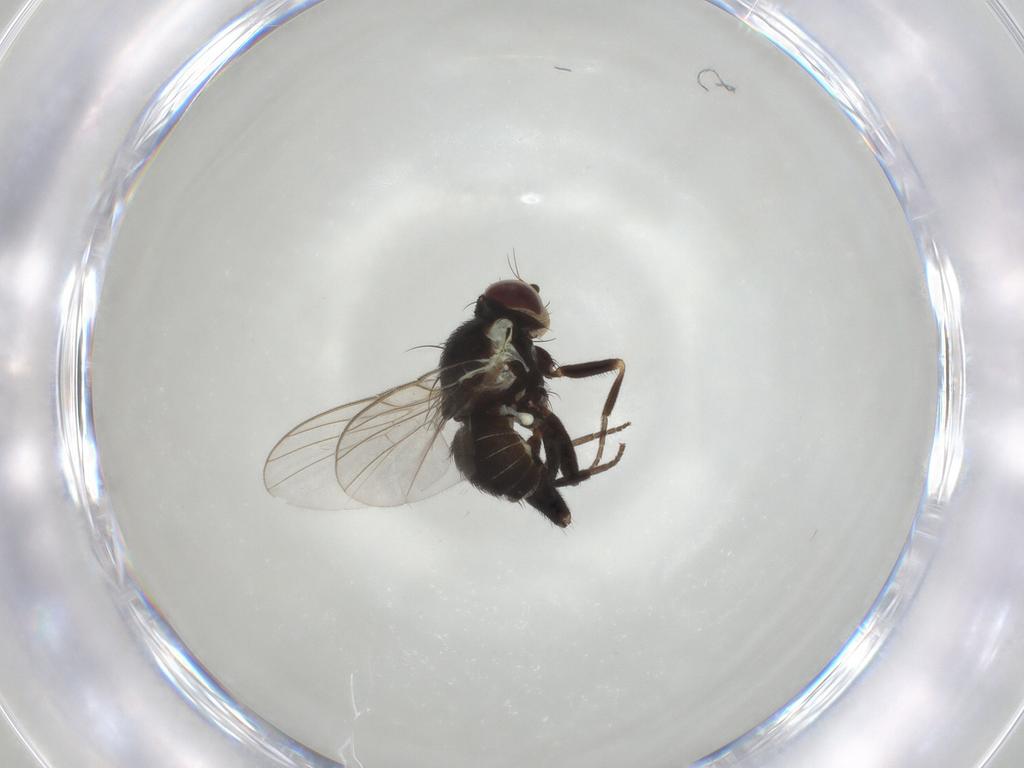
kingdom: Animalia
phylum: Arthropoda
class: Insecta
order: Diptera
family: Agromyzidae
